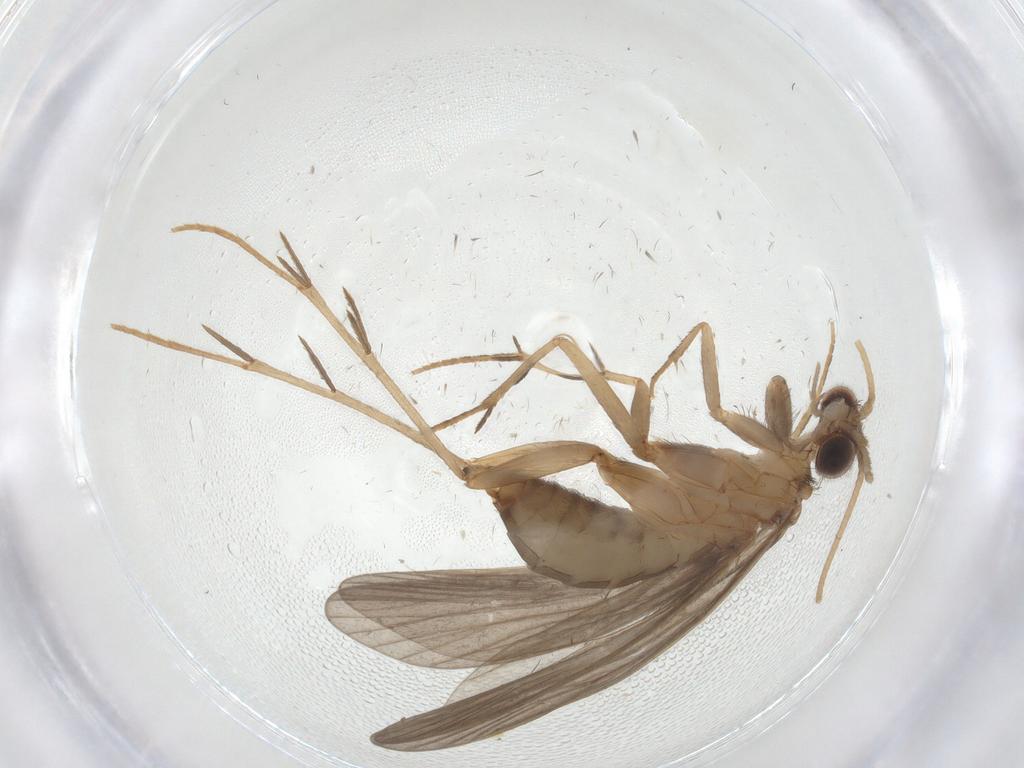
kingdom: Animalia
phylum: Arthropoda
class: Insecta
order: Trichoptera
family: Philopotamidae
